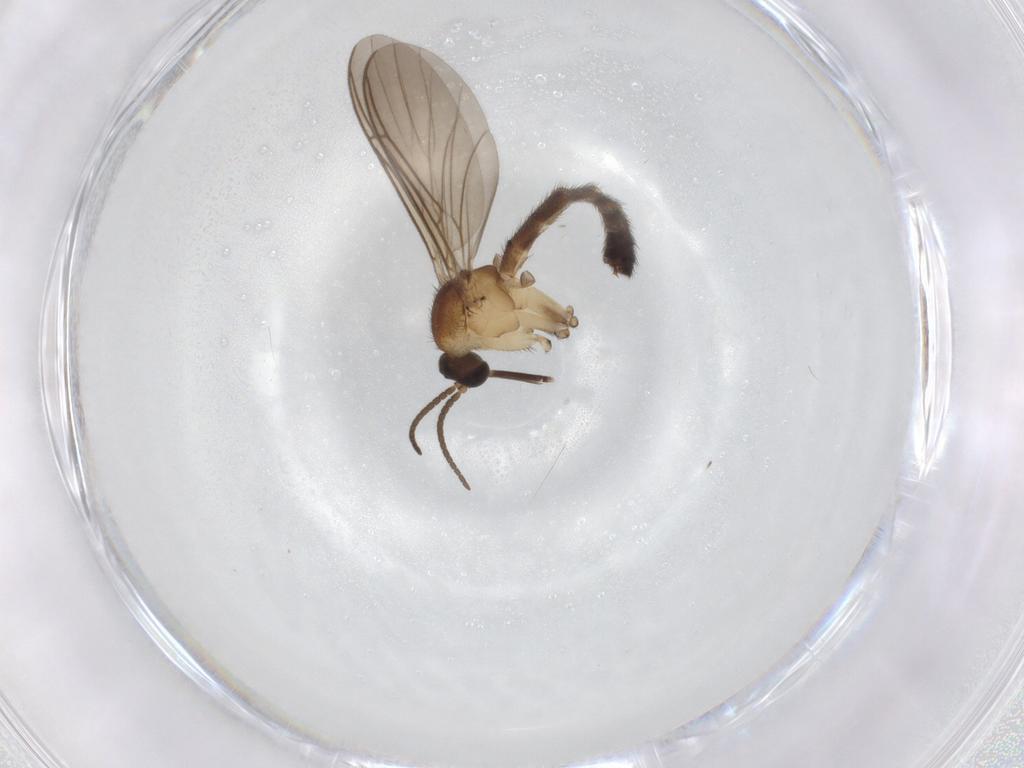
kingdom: Animalia
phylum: Arthropoda
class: Insecta
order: Diptera
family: Keroplatidae
